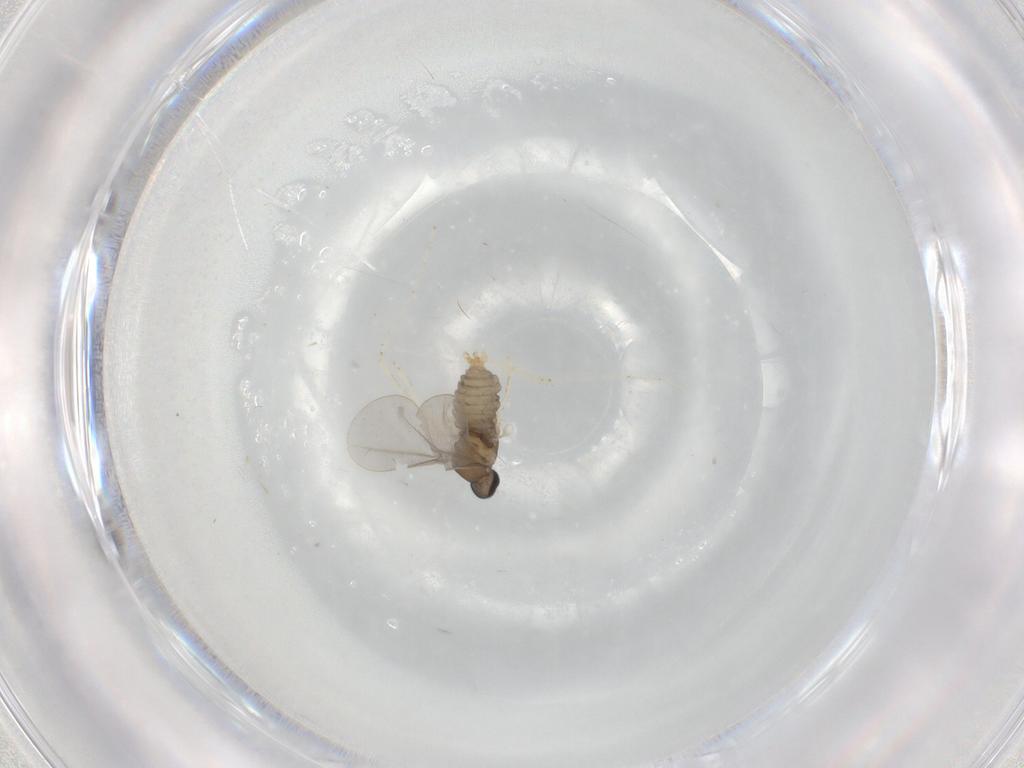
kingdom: Animalia
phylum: Arthropoda
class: Insecta
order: Diptera
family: Cecidomyiidae
